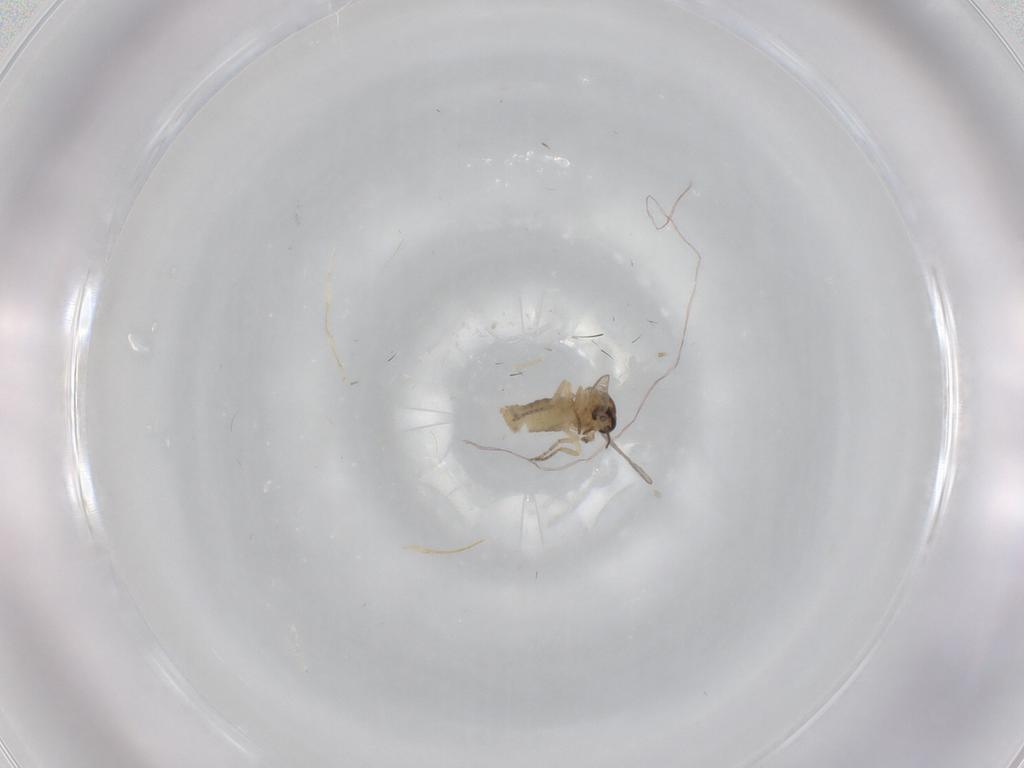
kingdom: Animalia
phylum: Arthropoda
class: Insecta
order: Diptera
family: Ceratopogonidae
